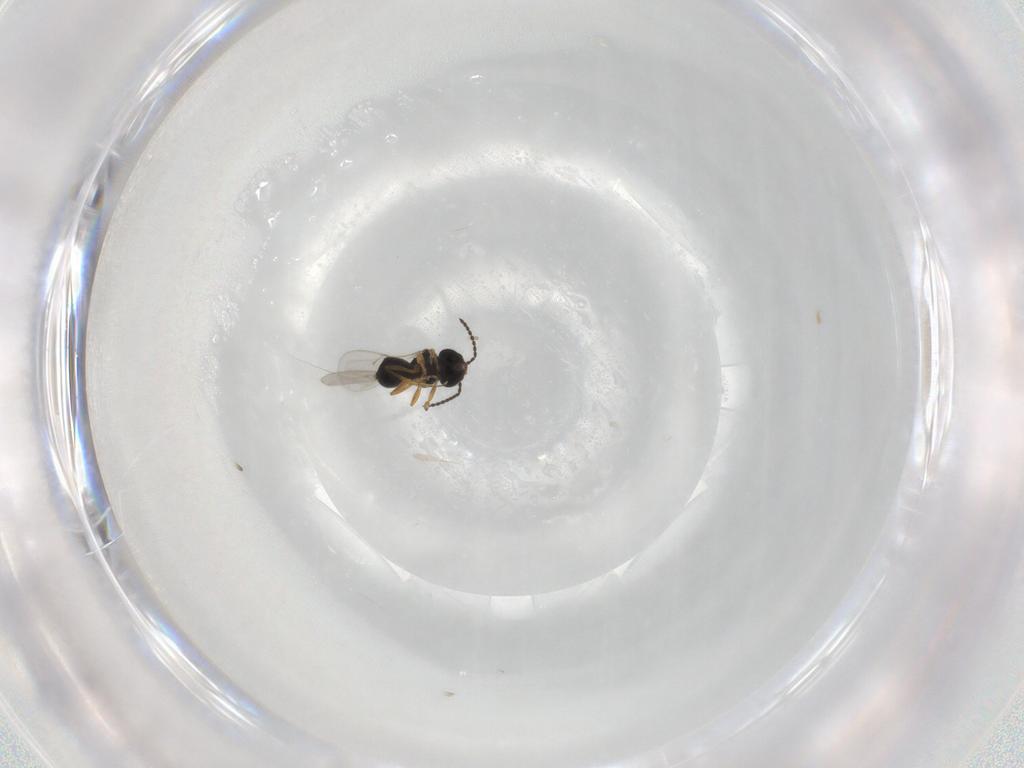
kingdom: Animalia
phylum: Arthropoda
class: Insecta
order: Hymenoptera
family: Scelionidae
